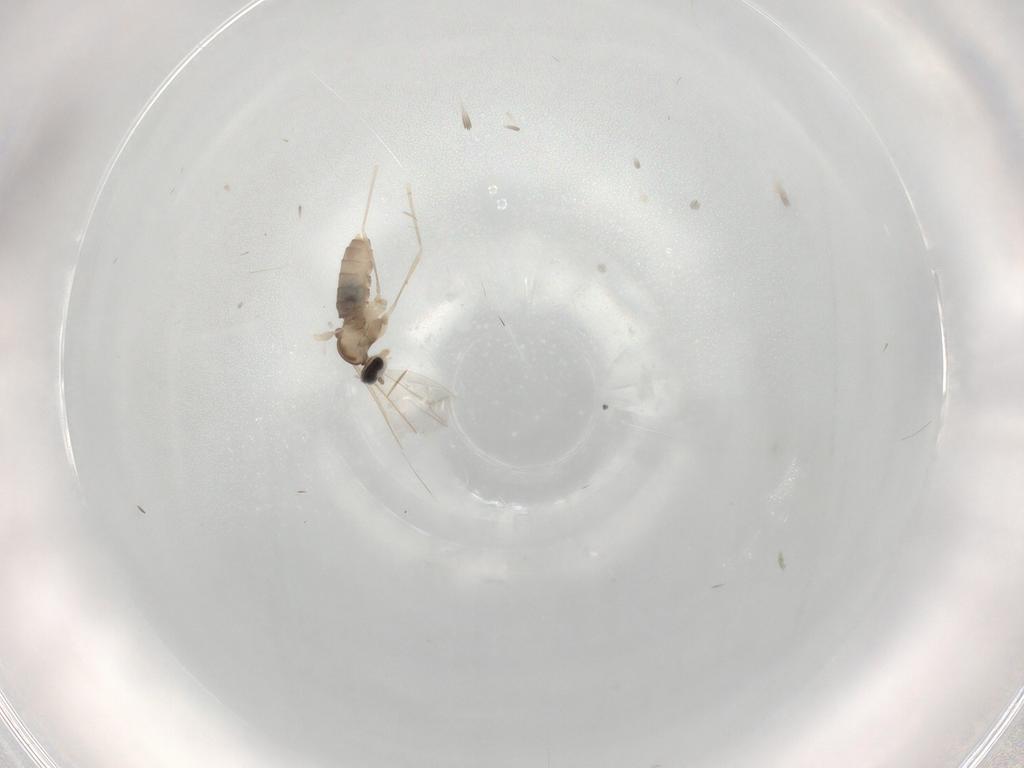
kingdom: Animalia
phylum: Arthropoda
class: Insecta
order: Diptera
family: Cecidomyiidae
